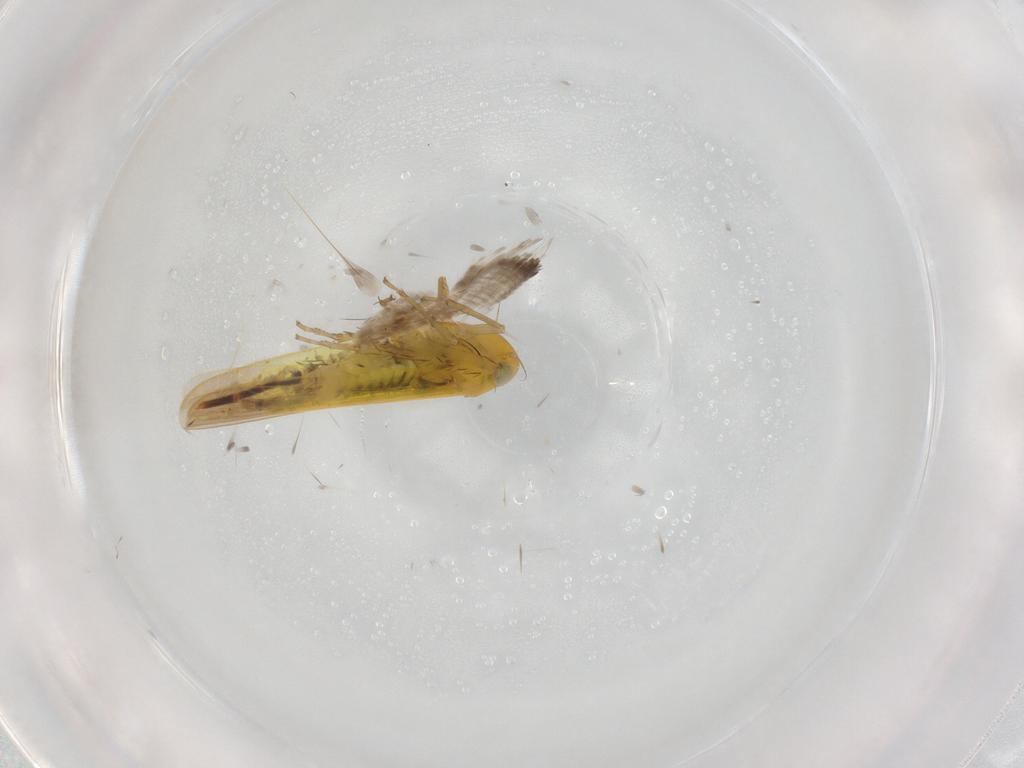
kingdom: Animalia
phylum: Arthropoda
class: Insecta
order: Hemiptera
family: Cicadellidae
